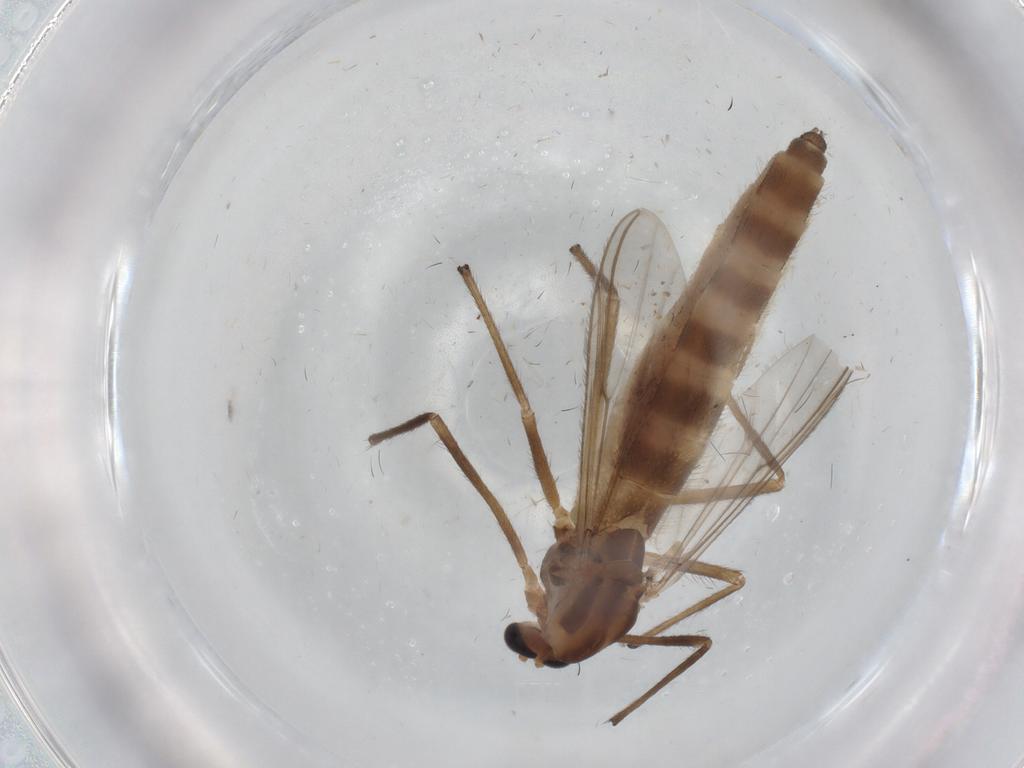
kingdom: Animalia
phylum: Arthropoda
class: Insecta
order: Diptera
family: Chironomidae
